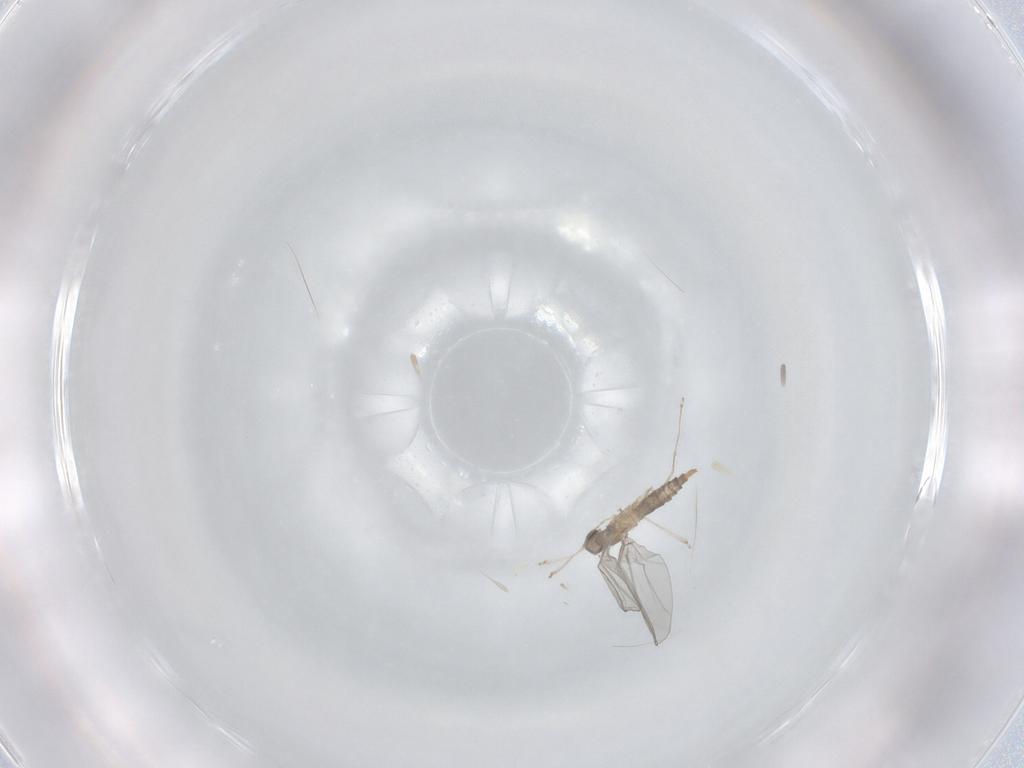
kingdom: Animalia
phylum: Arthropoda
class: Insecta
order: Diptera
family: Cecidomyiidae
